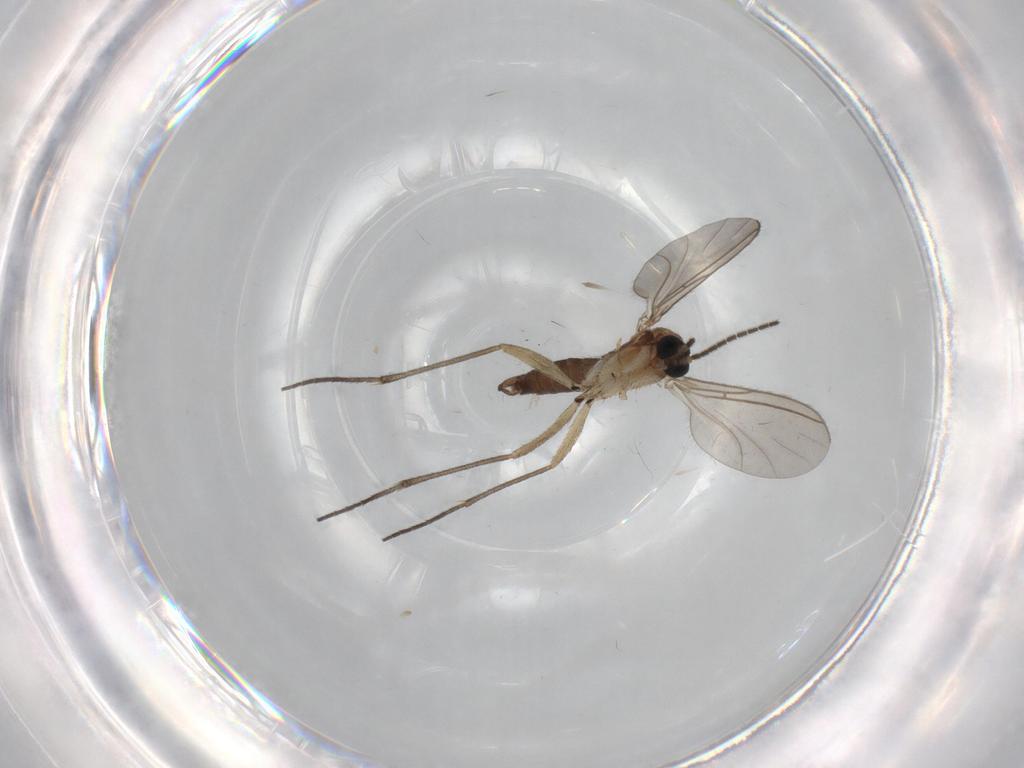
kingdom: Animalia
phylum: Arthropoda
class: Insecta
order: Diptera
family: Sciaridae
